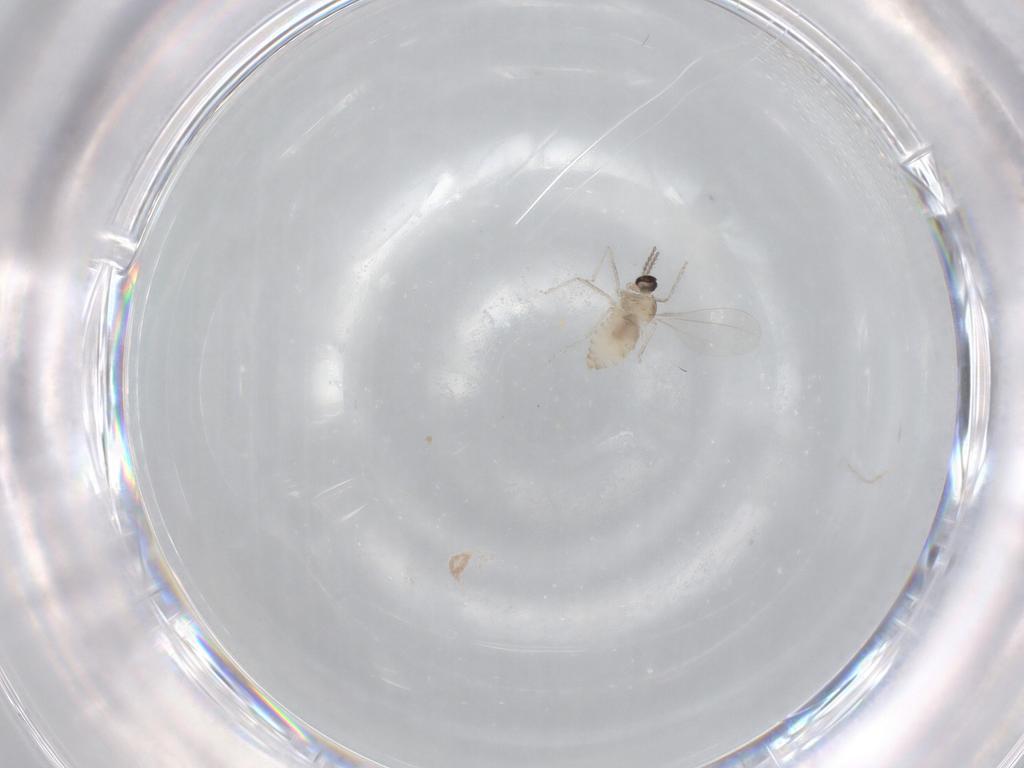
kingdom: Animalia
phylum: Arthropoda
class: Insecta
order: Diptera
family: Cecidomyiidae
